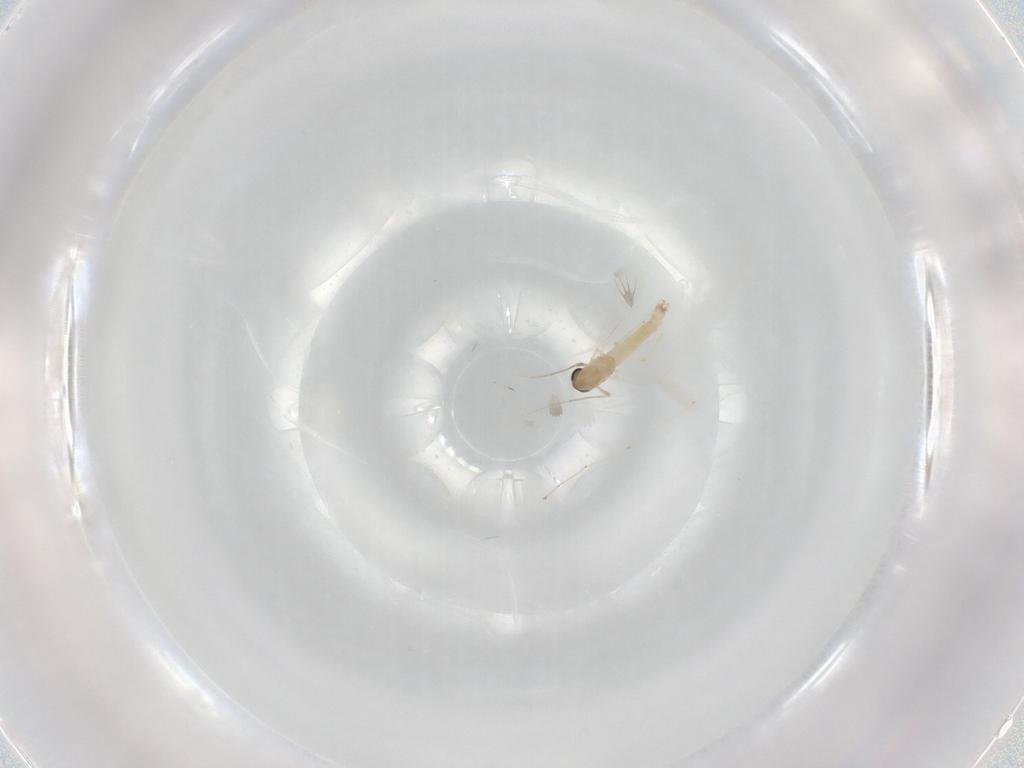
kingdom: Animalia
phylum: Arthropoda
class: Insecta
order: Diptera
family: Chironomidae
